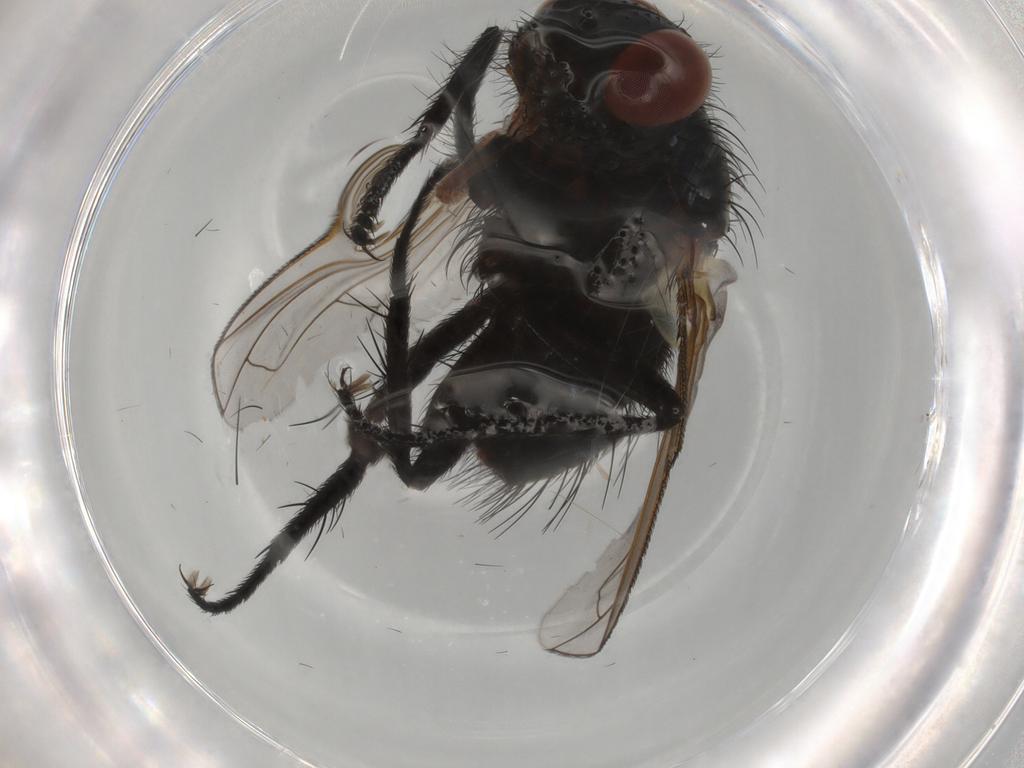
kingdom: Animalia
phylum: Arthropoda
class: Insecta
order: Diptera
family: Tachinidae
